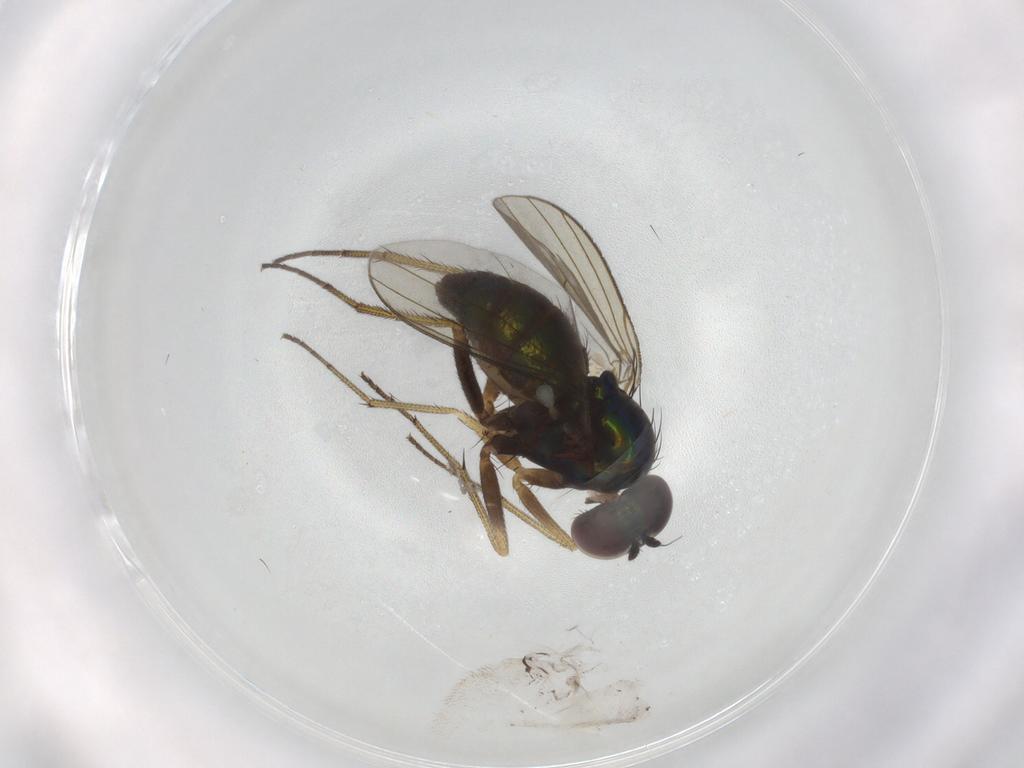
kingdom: Animalia
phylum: Arthropoda
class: Insecta
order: Diptera
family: Dolichopodidae
